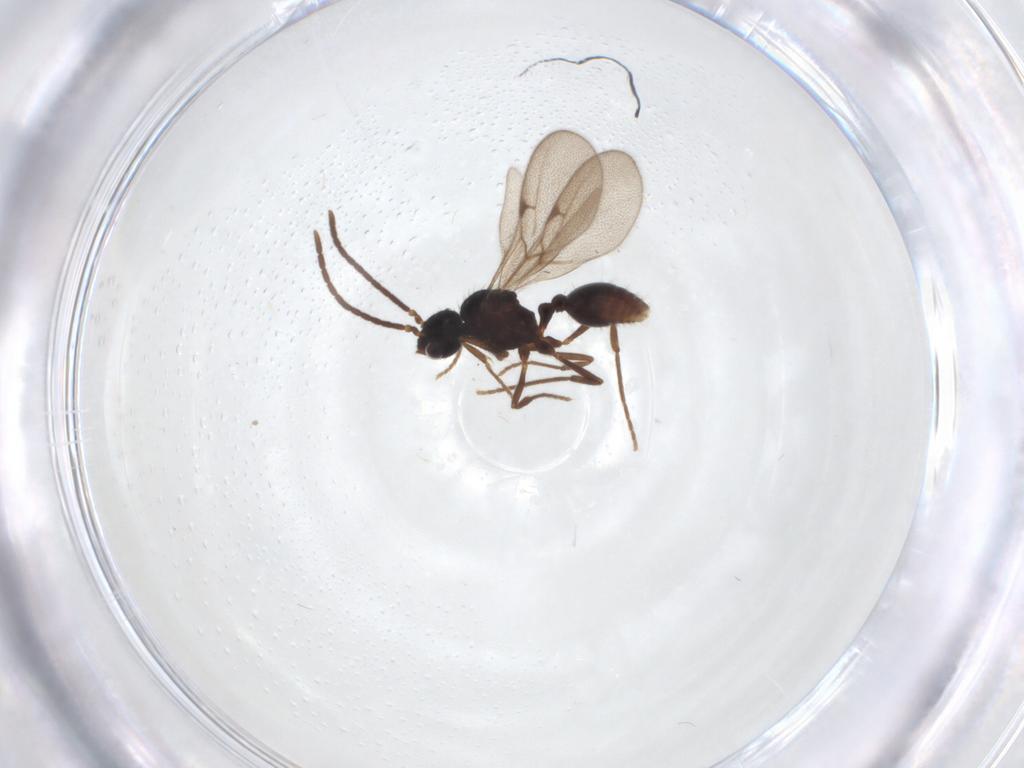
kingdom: Animalia
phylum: Arthropoda
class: Insecta
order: Hymenoptera
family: Formicidae
